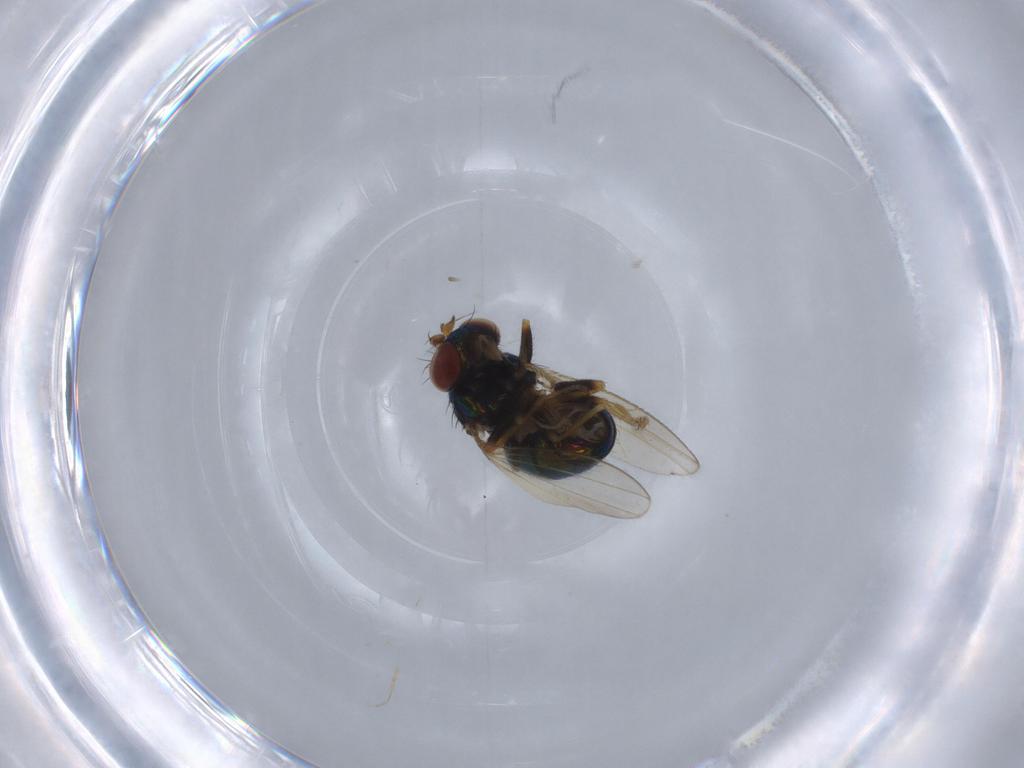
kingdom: Animalia
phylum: Arthropoda
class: Insecta
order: Diptera
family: Ephydridae
